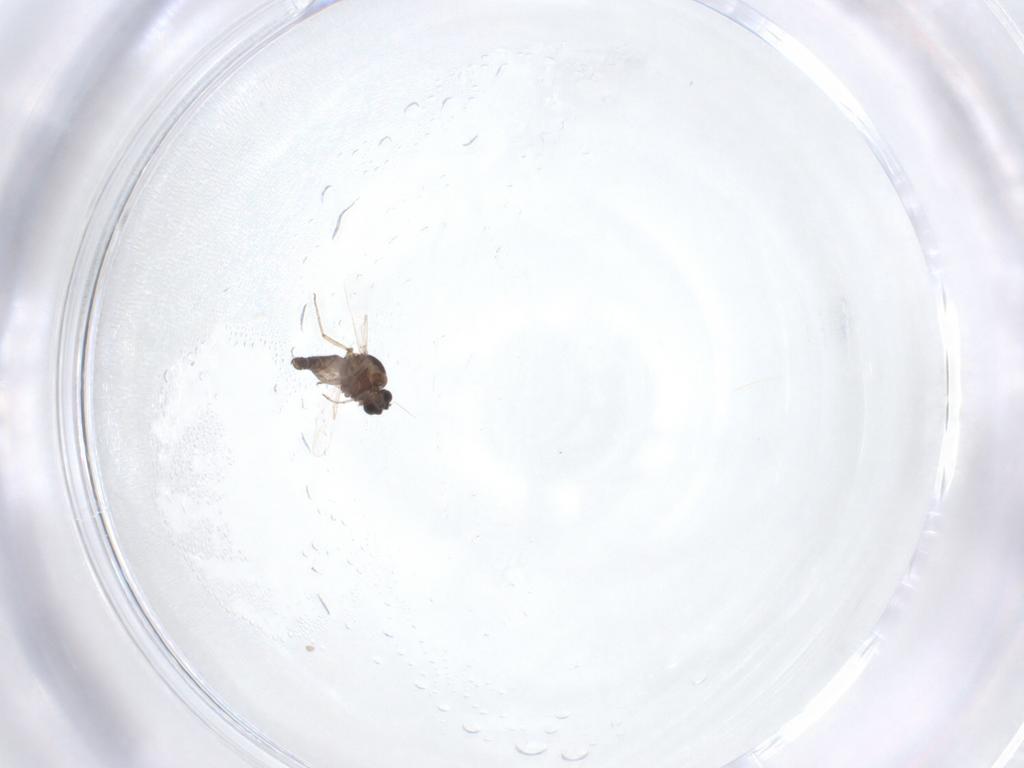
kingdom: Animalia
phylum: Arthropoda
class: Insecta
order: Diptera
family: Ceratopogonidae
